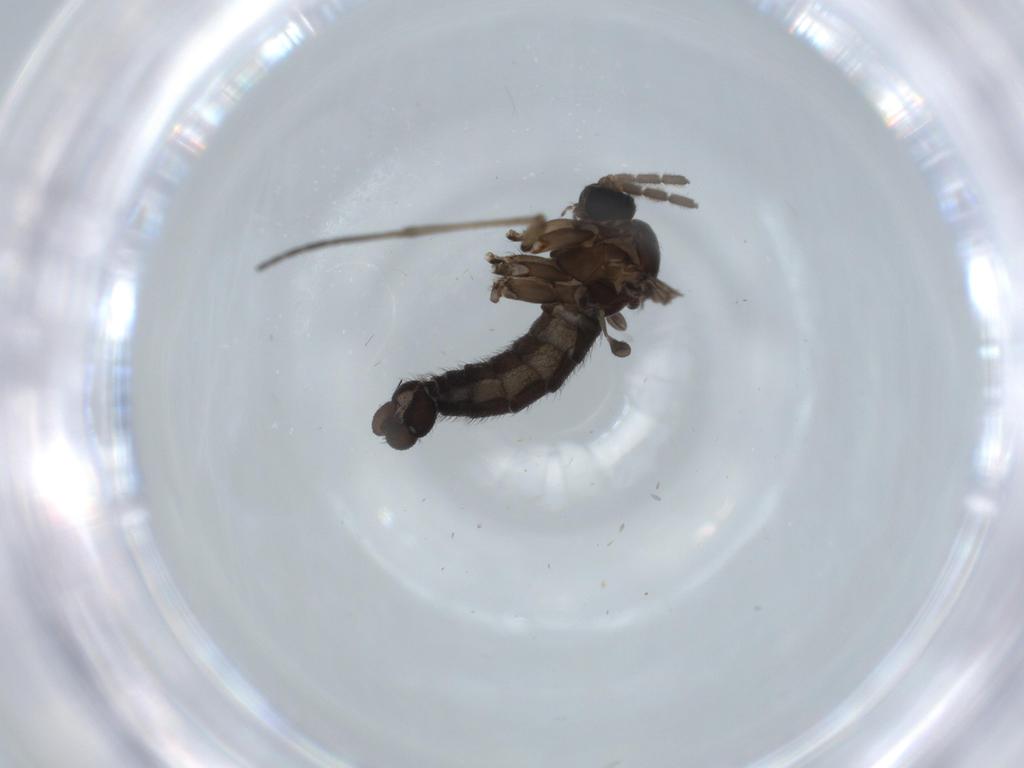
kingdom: Animalia
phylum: Arthropoda
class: Insecta
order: Diptera
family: Sciaridae
